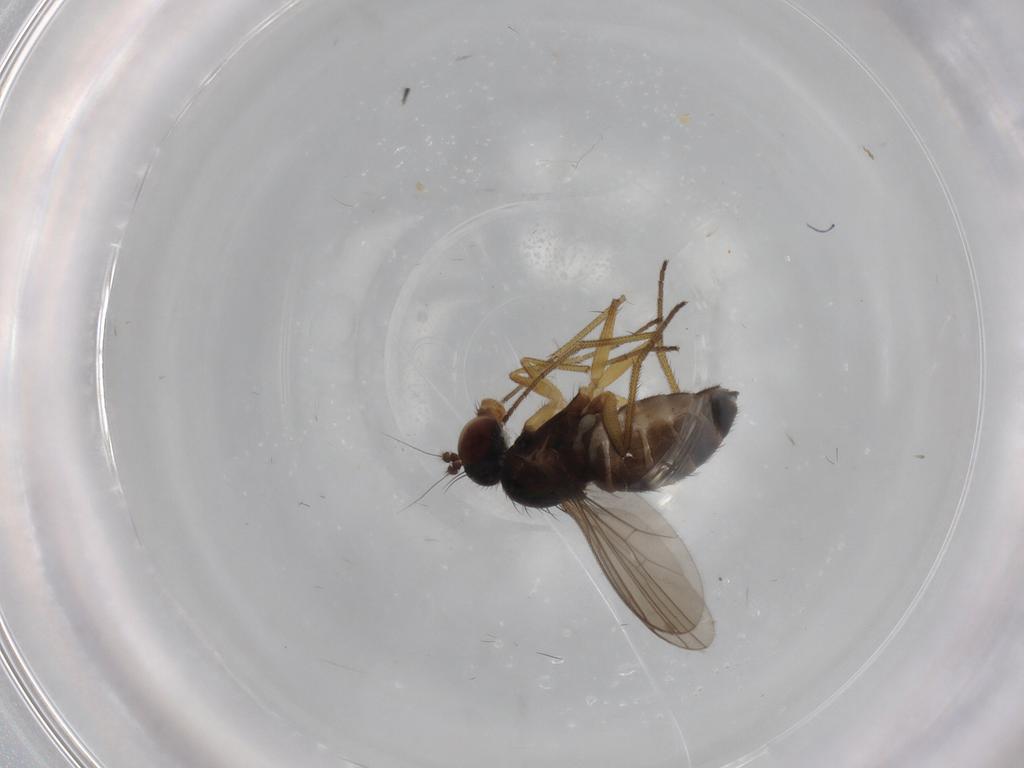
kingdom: Animalia
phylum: Arthropoda
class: Insecta
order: Diptera
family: Dolichopodidae
